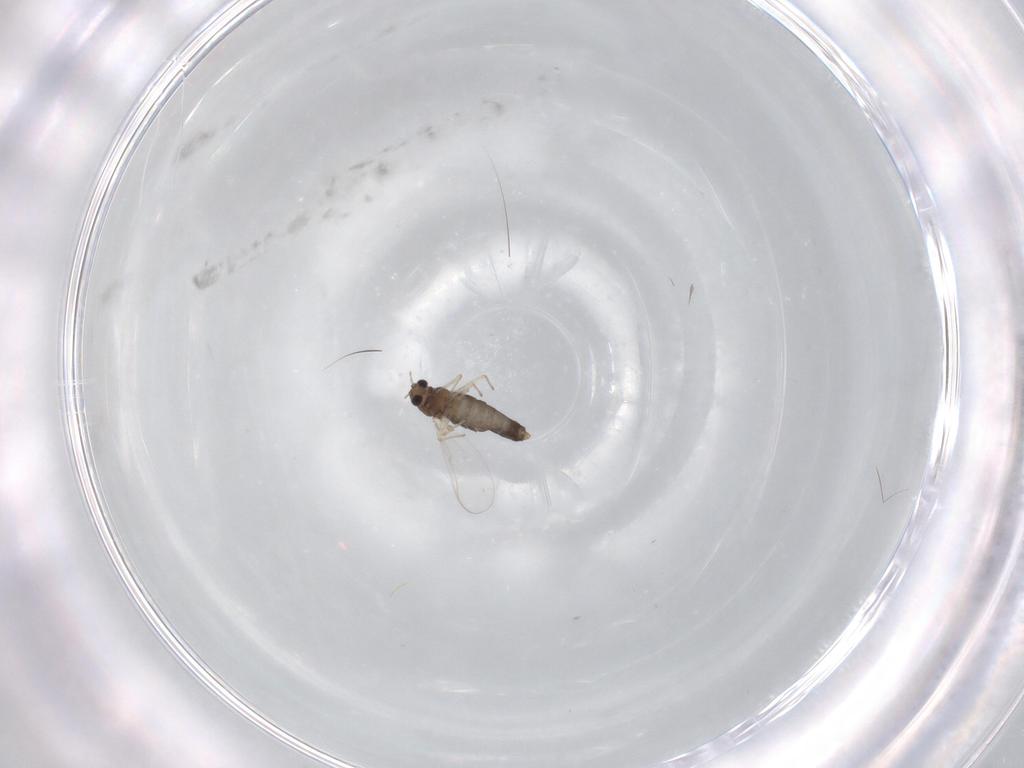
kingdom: Animalia
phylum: Arthropoda
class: Insecta
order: Diptera
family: Chironomidae
